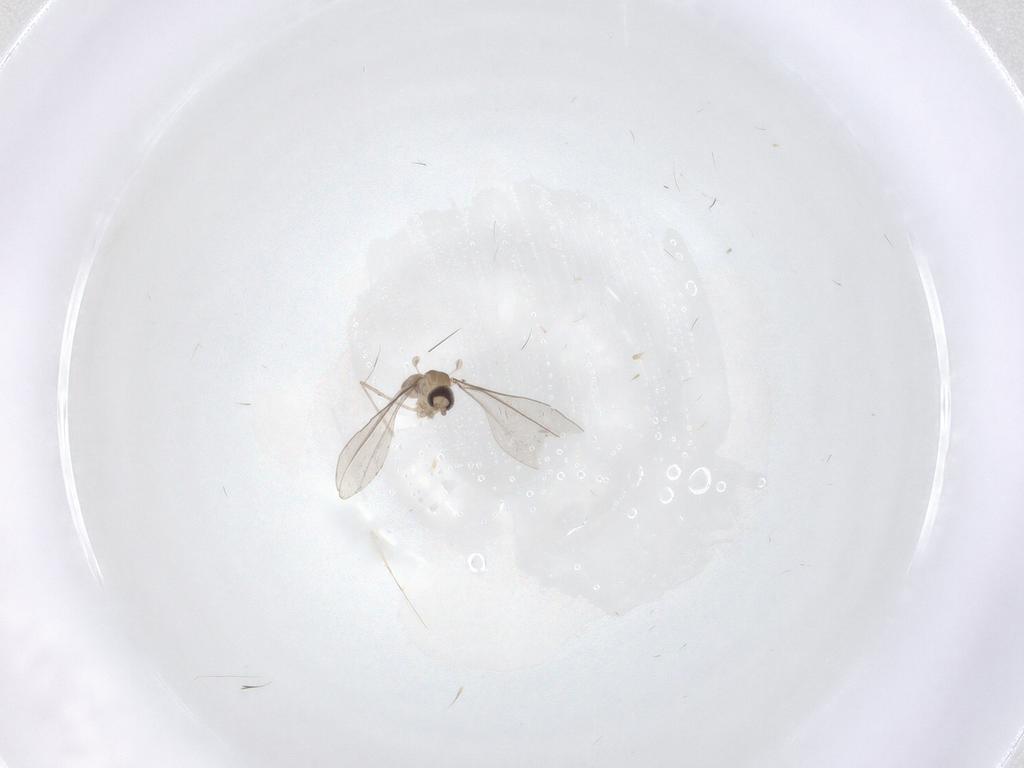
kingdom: Animalia
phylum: Arthropoda
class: Insecta
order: Diptera
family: Cecidomyiidae
